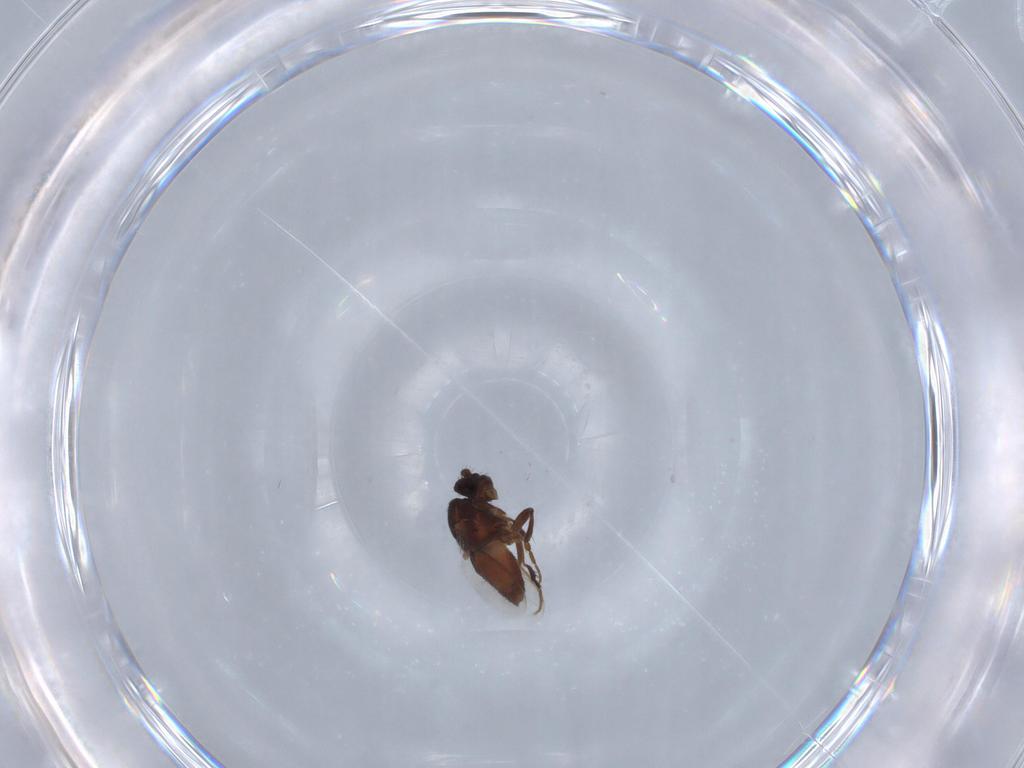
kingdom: Animalia
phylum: Arthropoda
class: Insecta
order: Diptera
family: Sphaeroceridae
